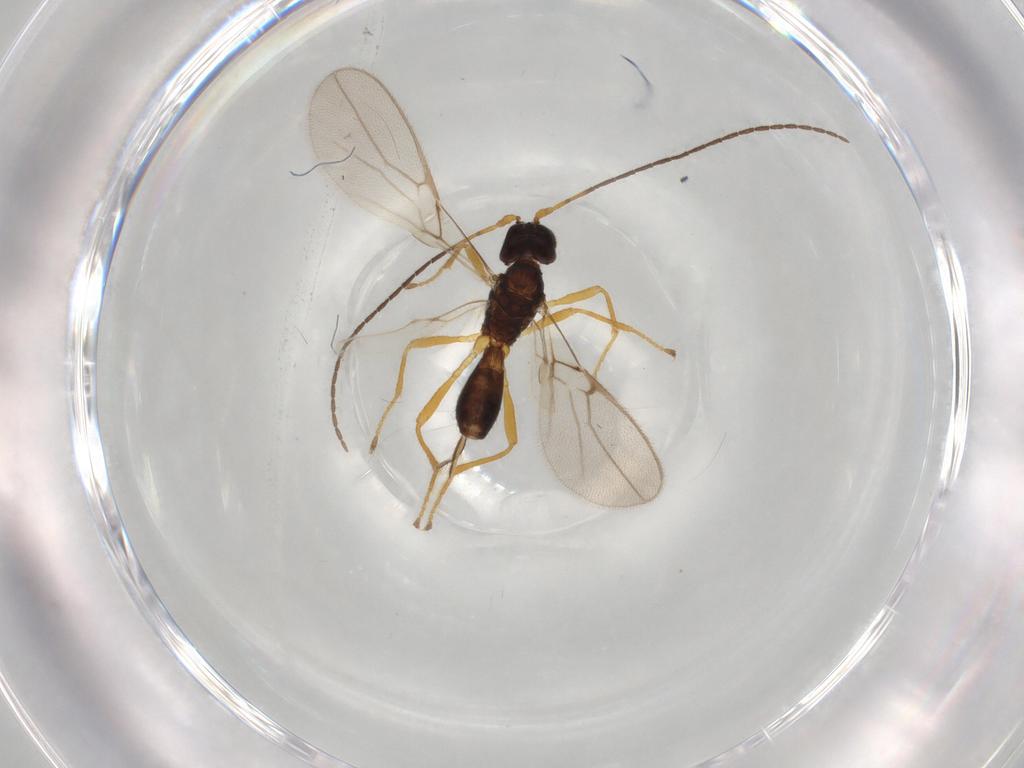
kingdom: Animalia
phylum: Arthropoda
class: Insecta
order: Hymenoptera
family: Braconidae
